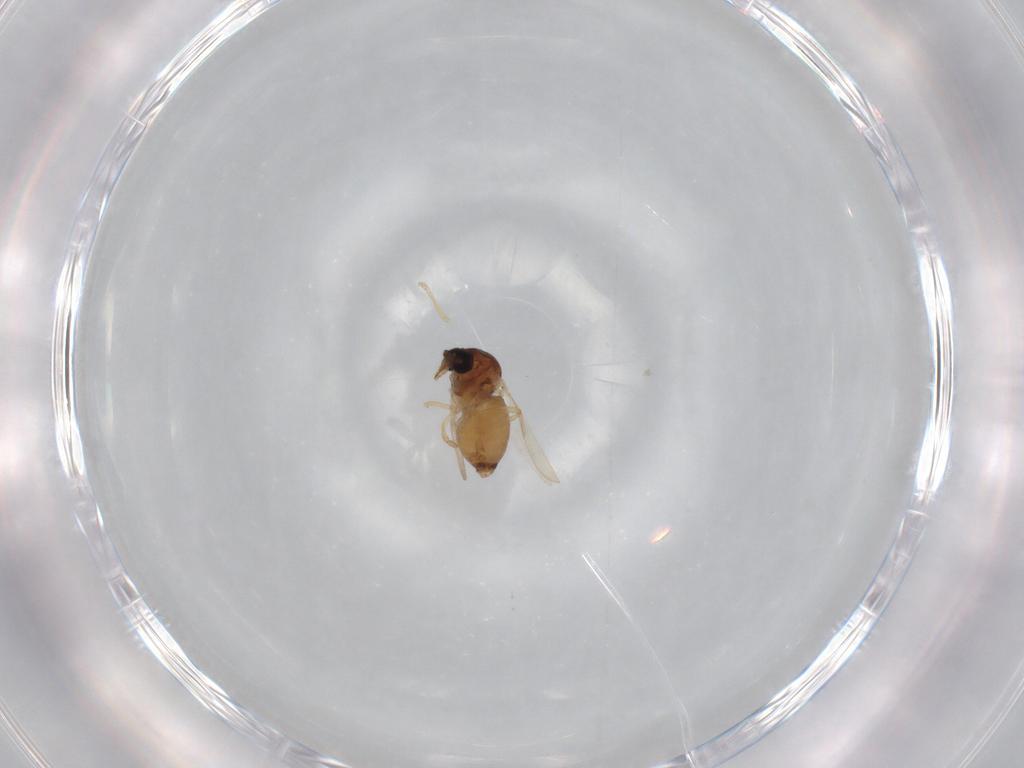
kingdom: Animalia
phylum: Arthropoda
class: Insecta
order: Diptera
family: Ceratopogonidae
